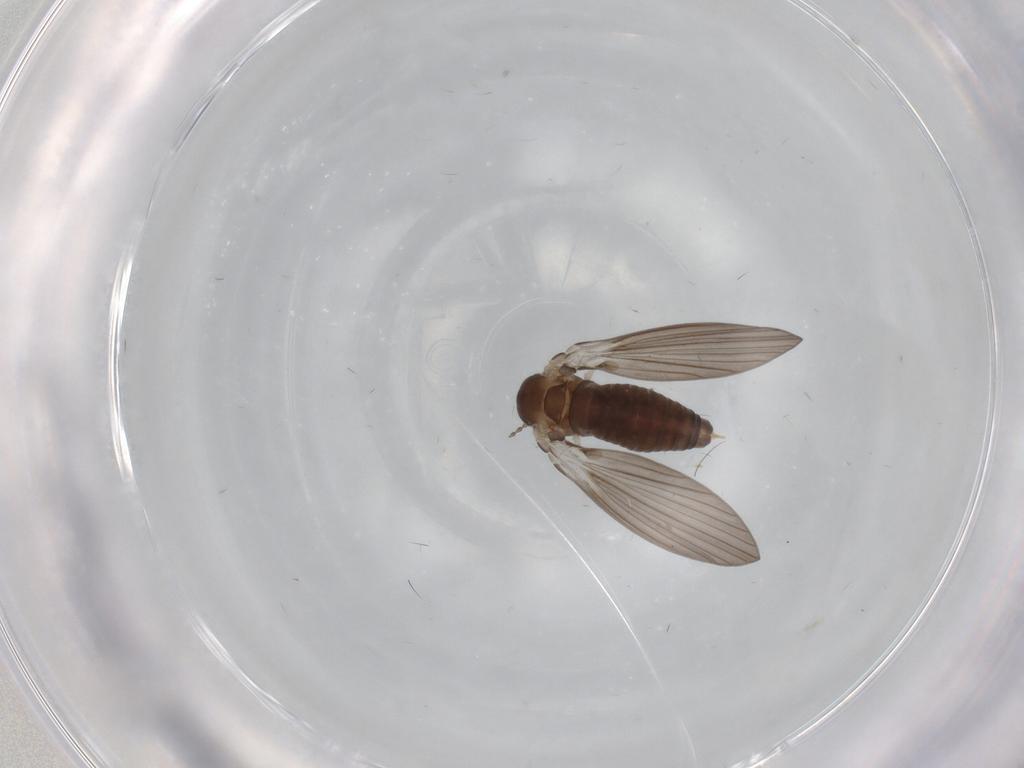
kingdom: Animalia
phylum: Arthropoda
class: Insecta
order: Diptera
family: Psychodidae
